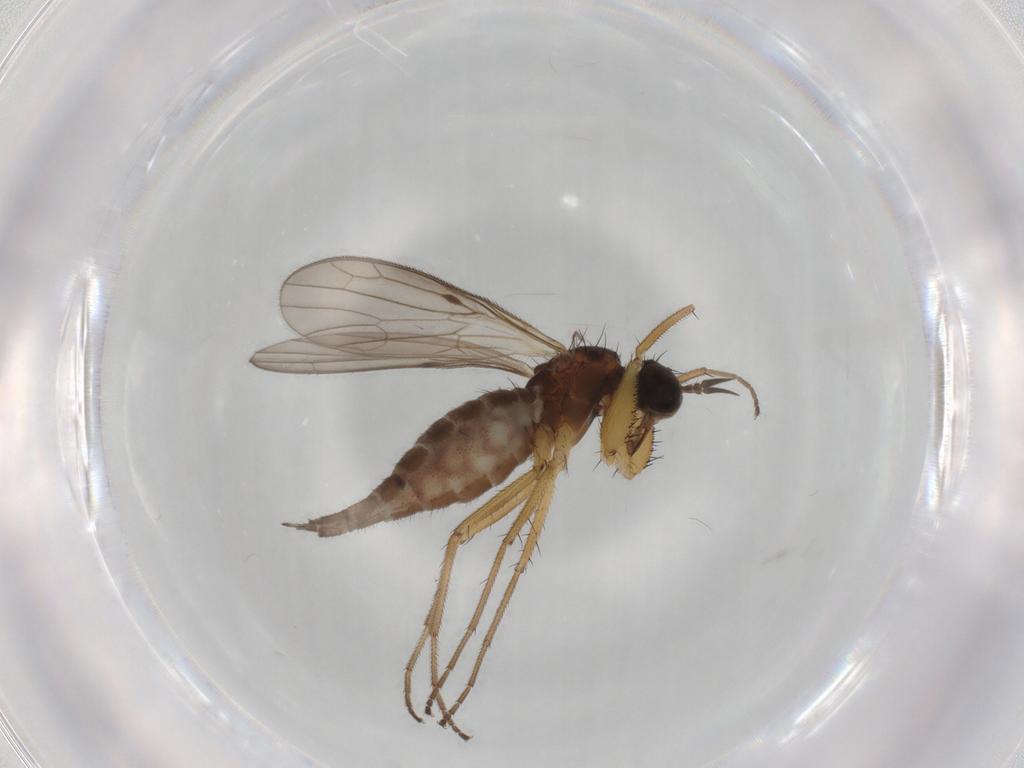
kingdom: Animalia
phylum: Arthropoda
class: Insecta
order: Diptera
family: Empididae
